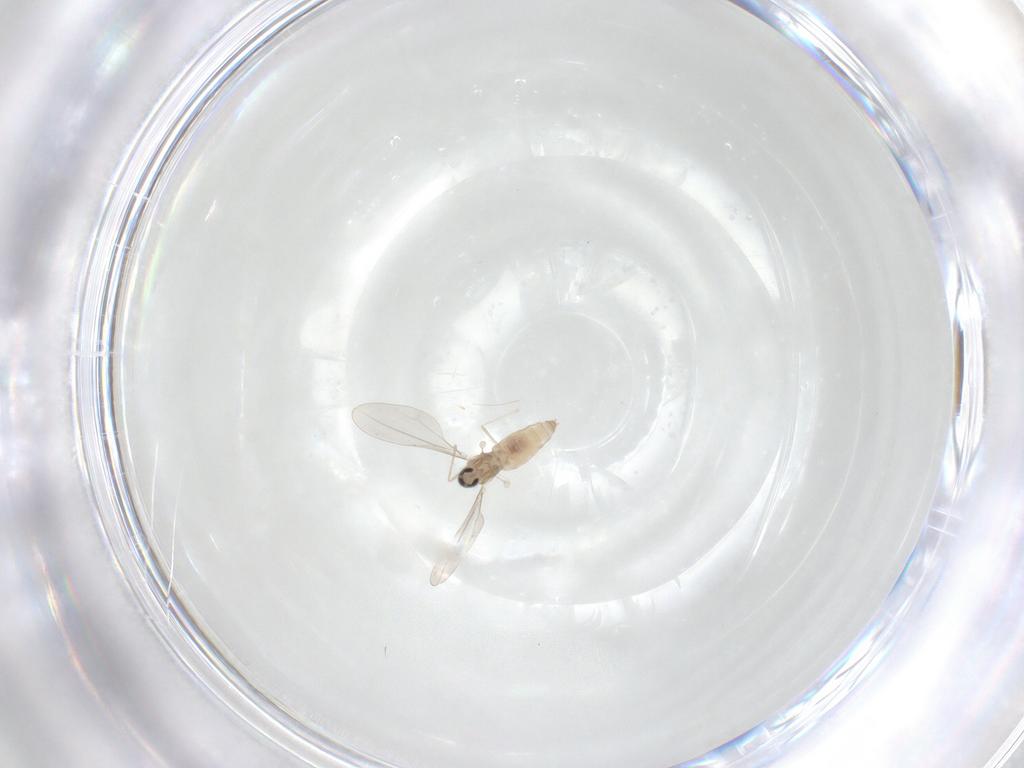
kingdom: Animalia
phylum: Arthropoda
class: Insecta
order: Diptera
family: Cecidomyiidae
